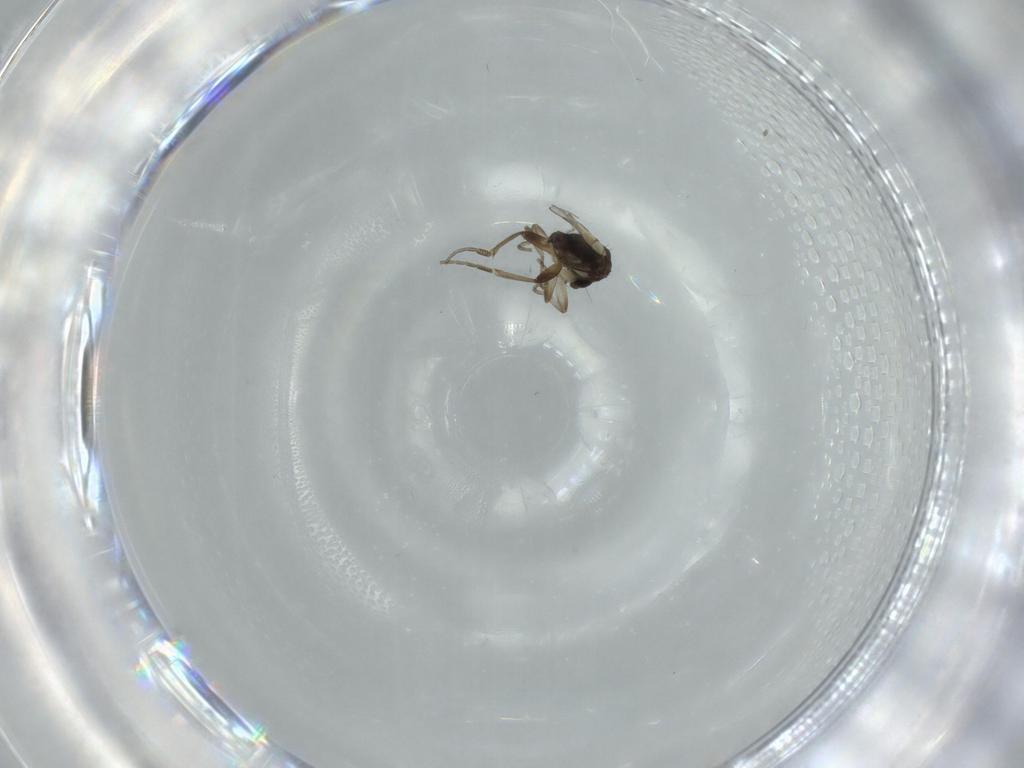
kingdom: Animalia
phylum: Arthropoda
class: Insecta
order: Diptera
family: Phoridae
